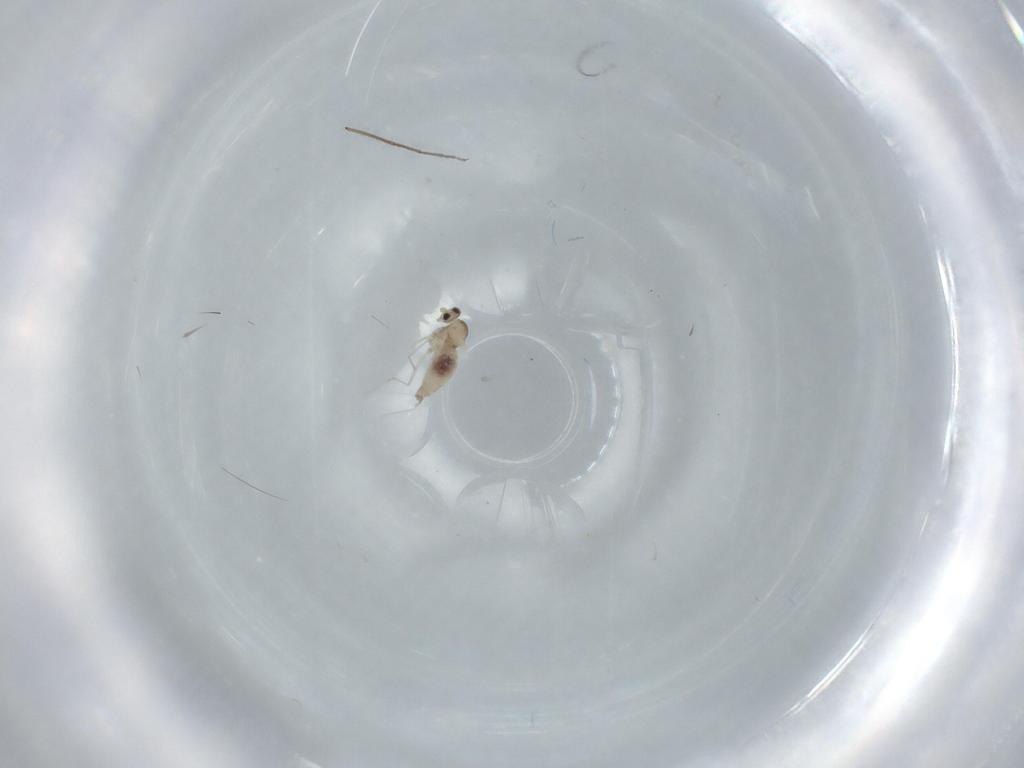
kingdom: Animalia
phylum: Arthropoda
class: Insecta
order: Diptera
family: Cecidomyiidae
